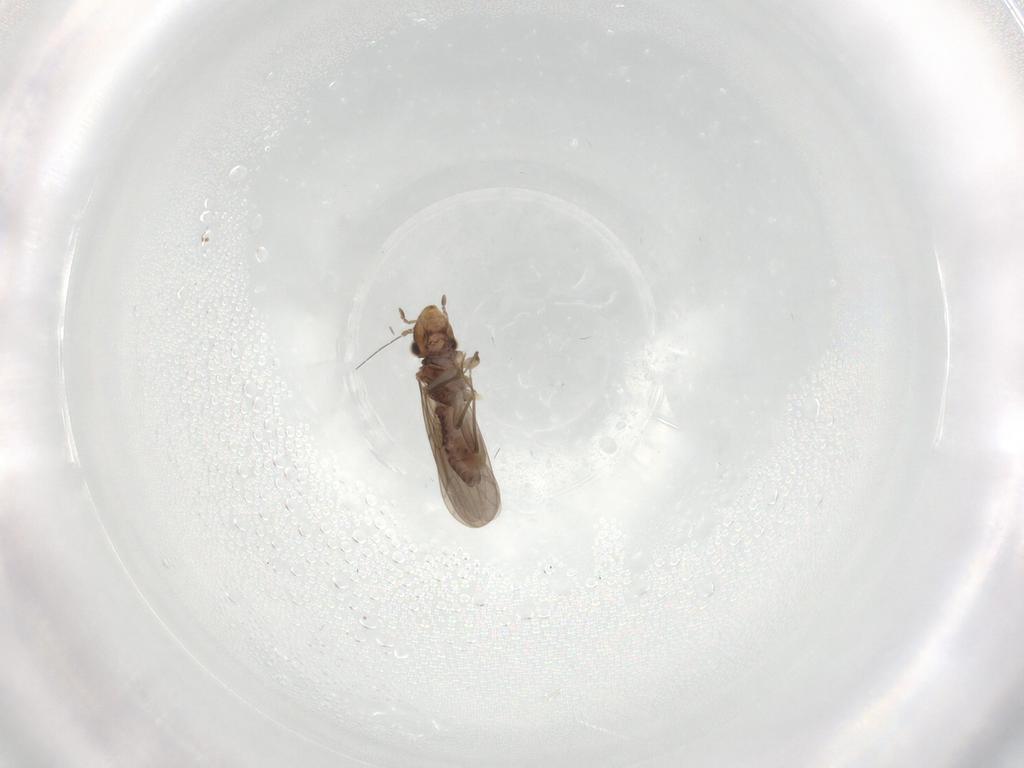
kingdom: Animalia
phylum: Arthropoda
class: Insecta
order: Psocodea
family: Lepidopsocidae
